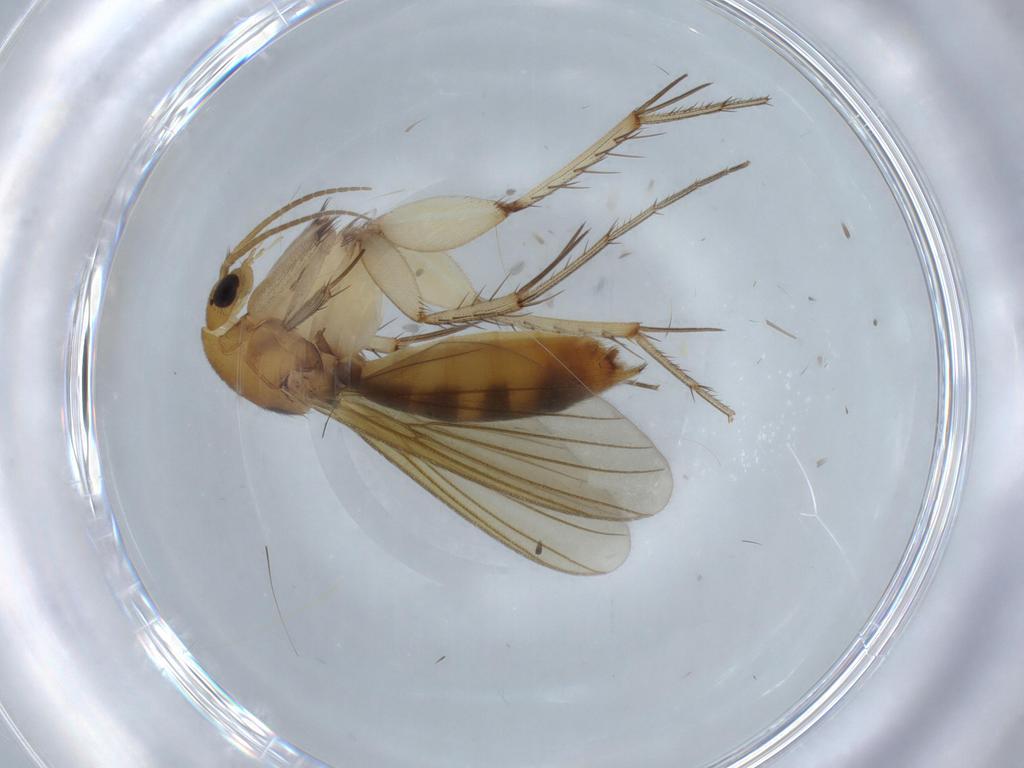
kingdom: Animalia
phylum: Arthropoda
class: Insecta
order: Diptera
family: Mycetophilidae
